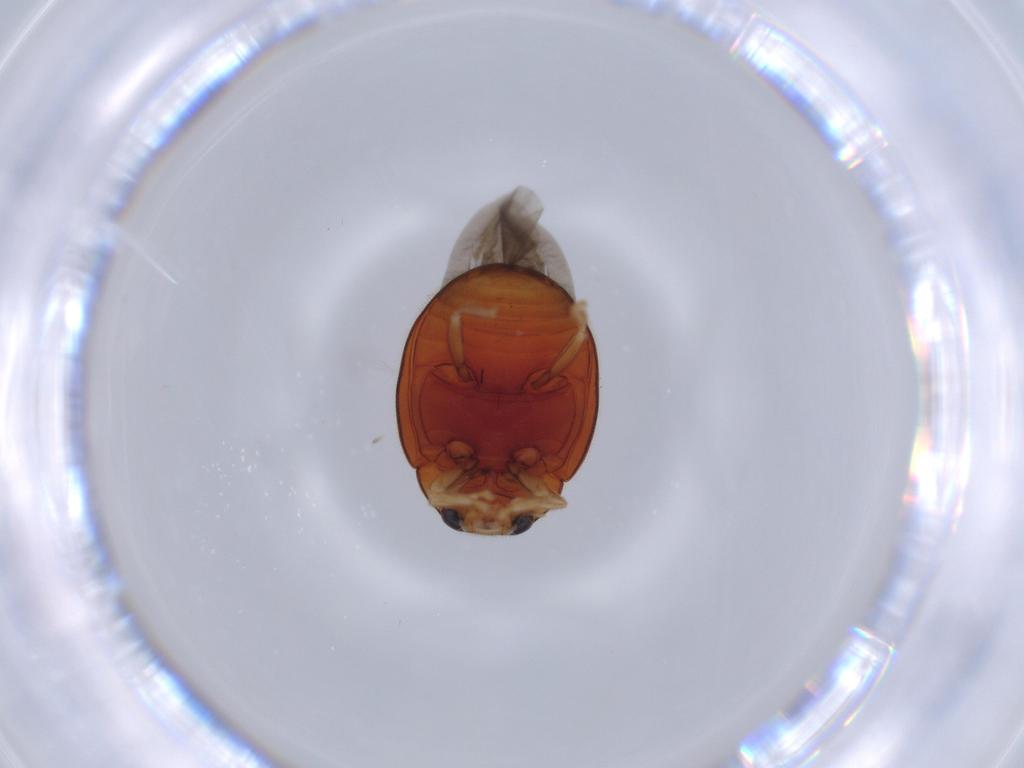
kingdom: Animalia
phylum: Arthropoda
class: Insecta
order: Coleoptera
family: Coccinellidae
